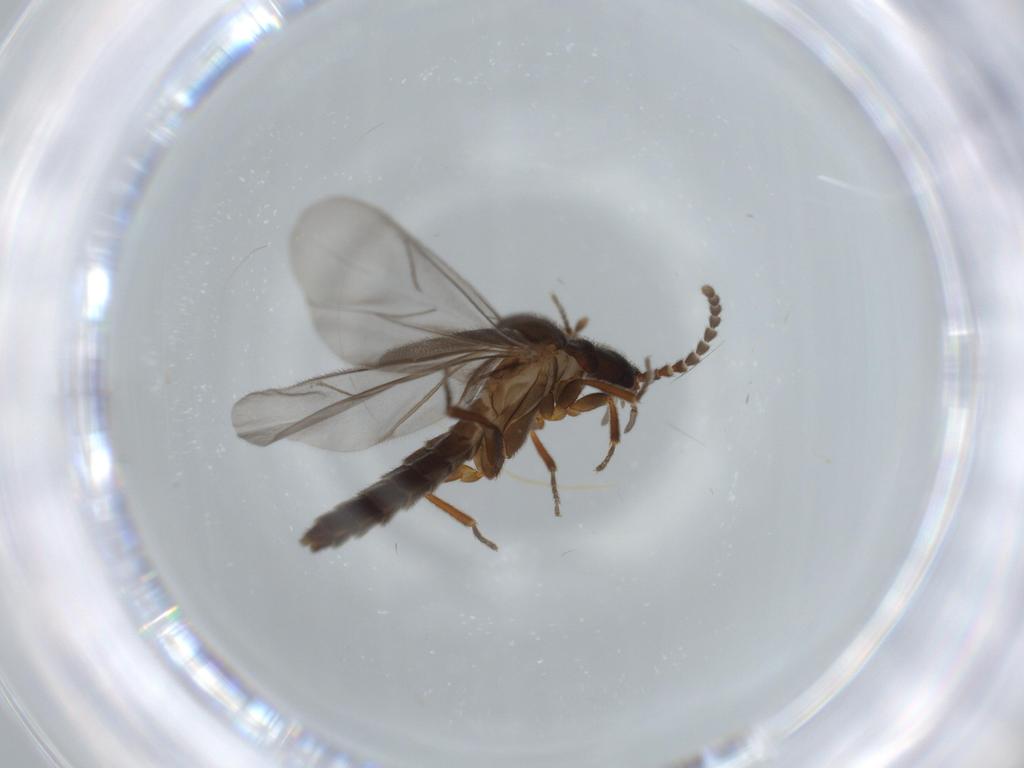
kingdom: Animalia
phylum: Arthropoda
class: Insecta
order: Coleoptera
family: Omethidae
